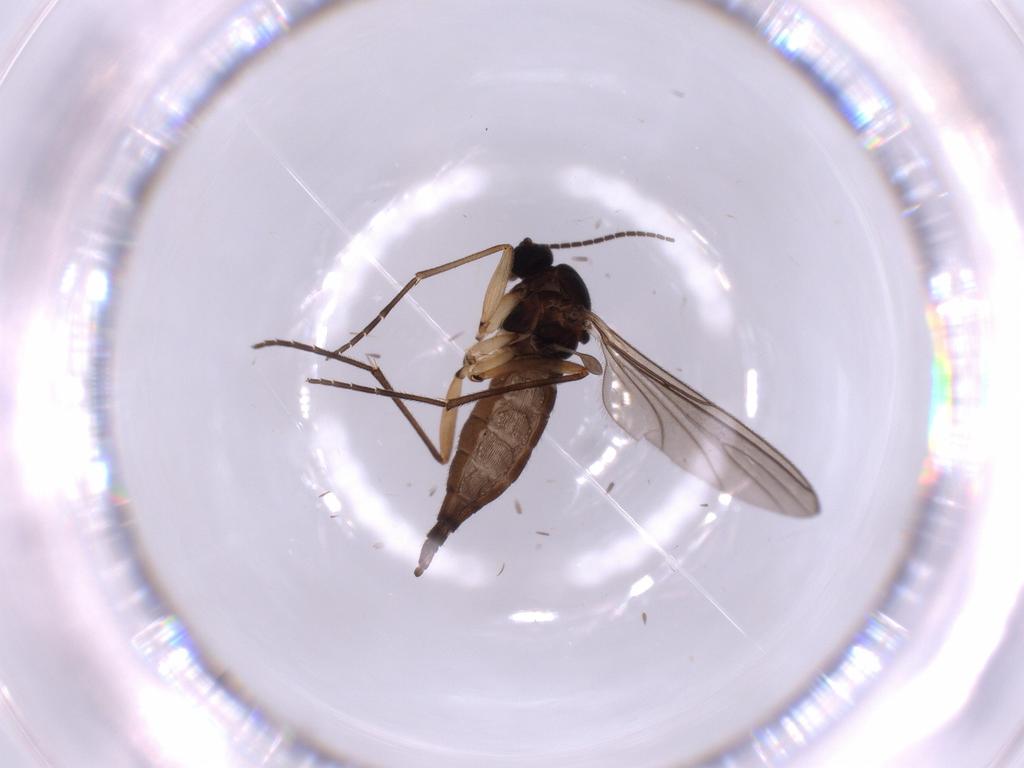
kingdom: Animalia
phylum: Arthropoda
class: Insecta
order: Diptera
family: Sciaridae
